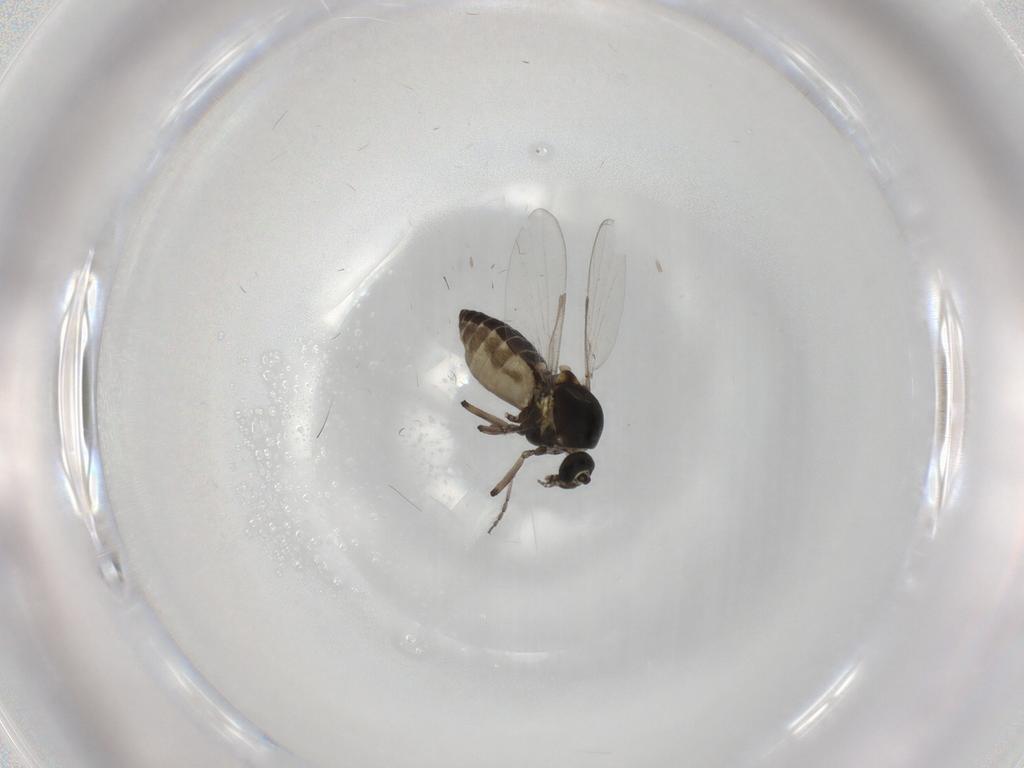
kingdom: Animalia
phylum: Arthropoda
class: Insecta
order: Diptera
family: Ceratopogonidae
